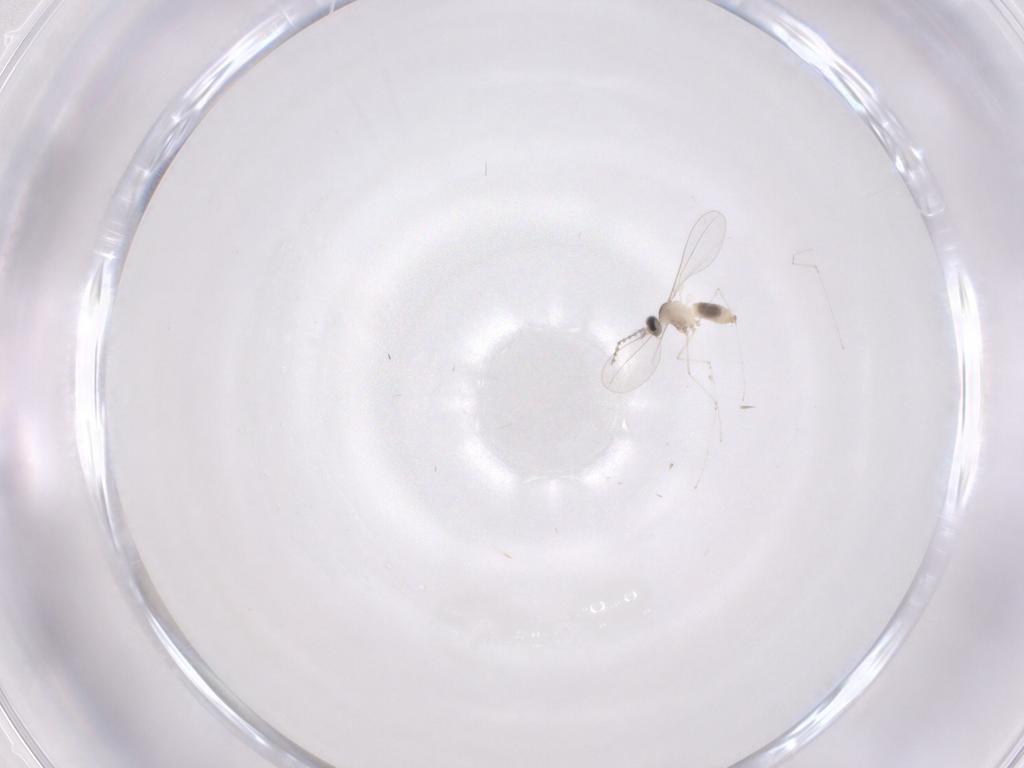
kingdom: Animalia
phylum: Arthropoda
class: Insecta
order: Diptera
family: Cecidomyiidae
